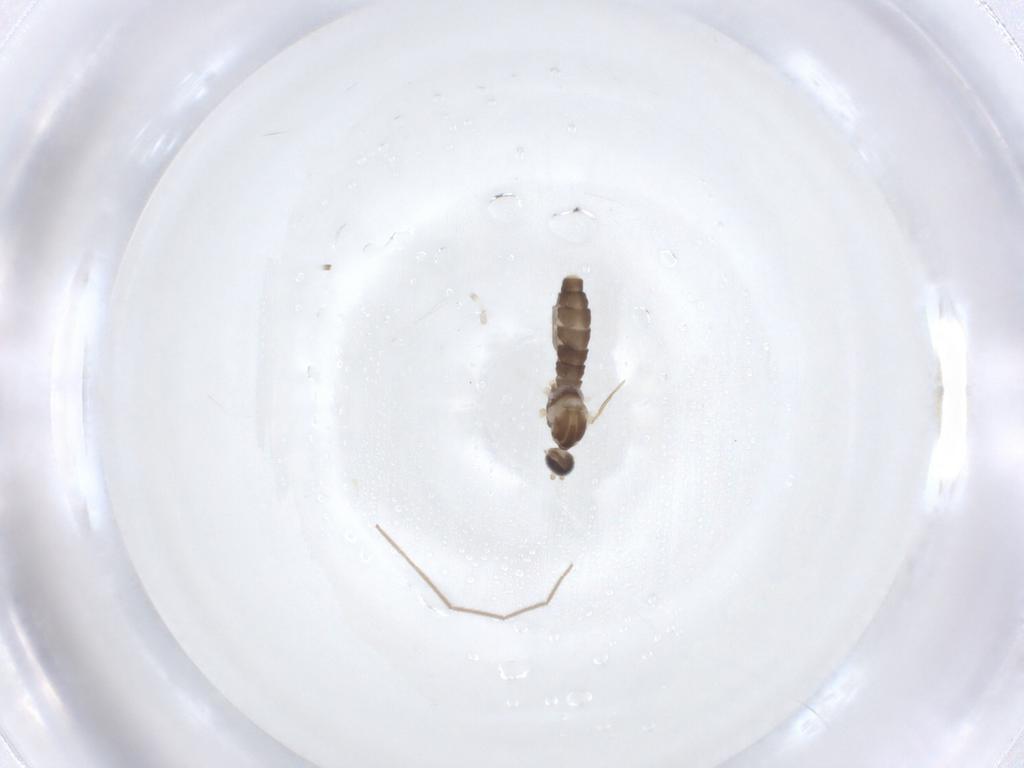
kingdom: Animalia
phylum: Arthropoda
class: Insecta
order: Diptera
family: Cecidomyiidae
